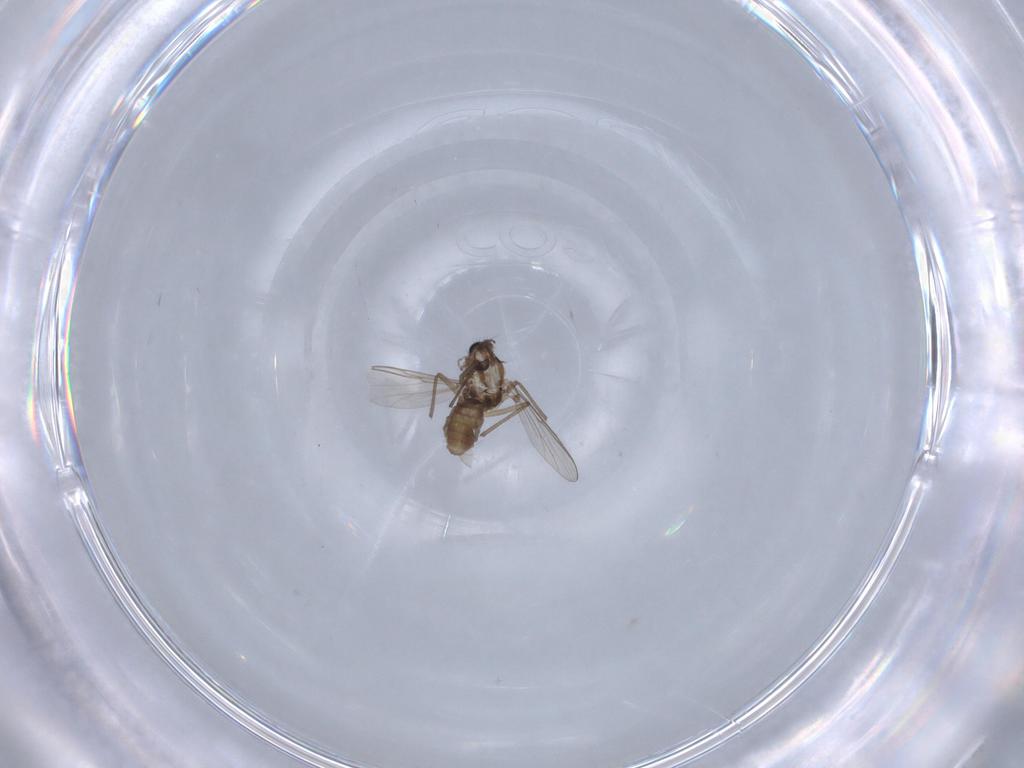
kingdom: Animalia
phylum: Arthropoda
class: Insecta
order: Diptera
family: Chironomidae
